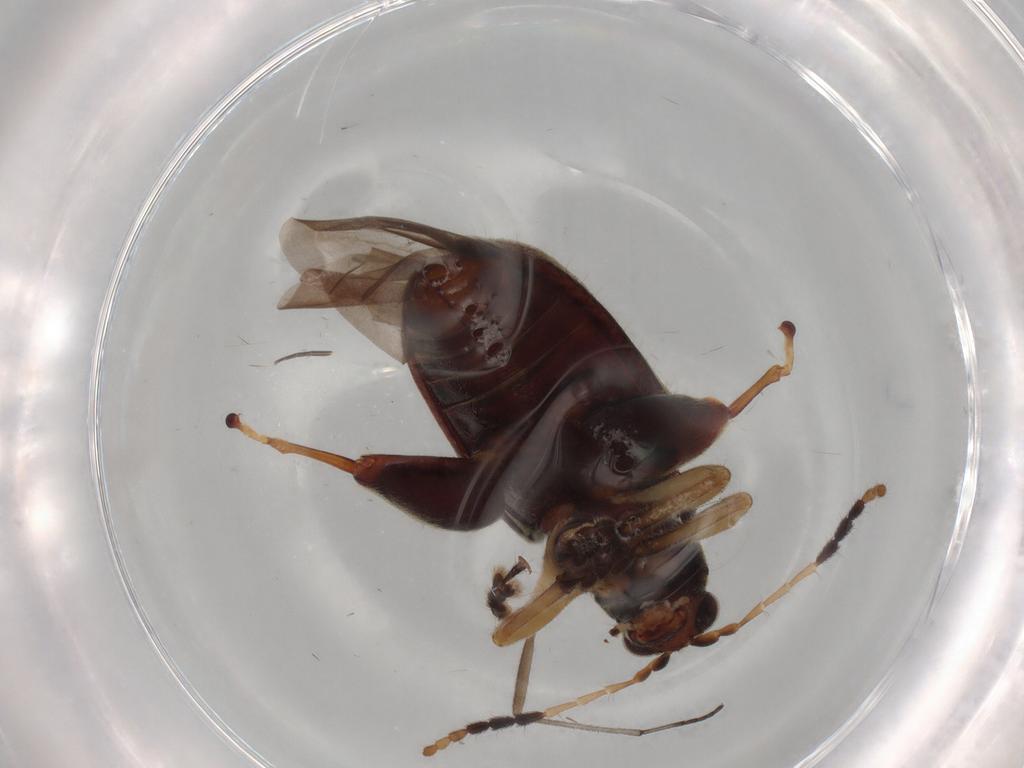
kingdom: Animalia
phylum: Arthropoda
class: Insecta
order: Coleoptera
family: Chrysomelidae
